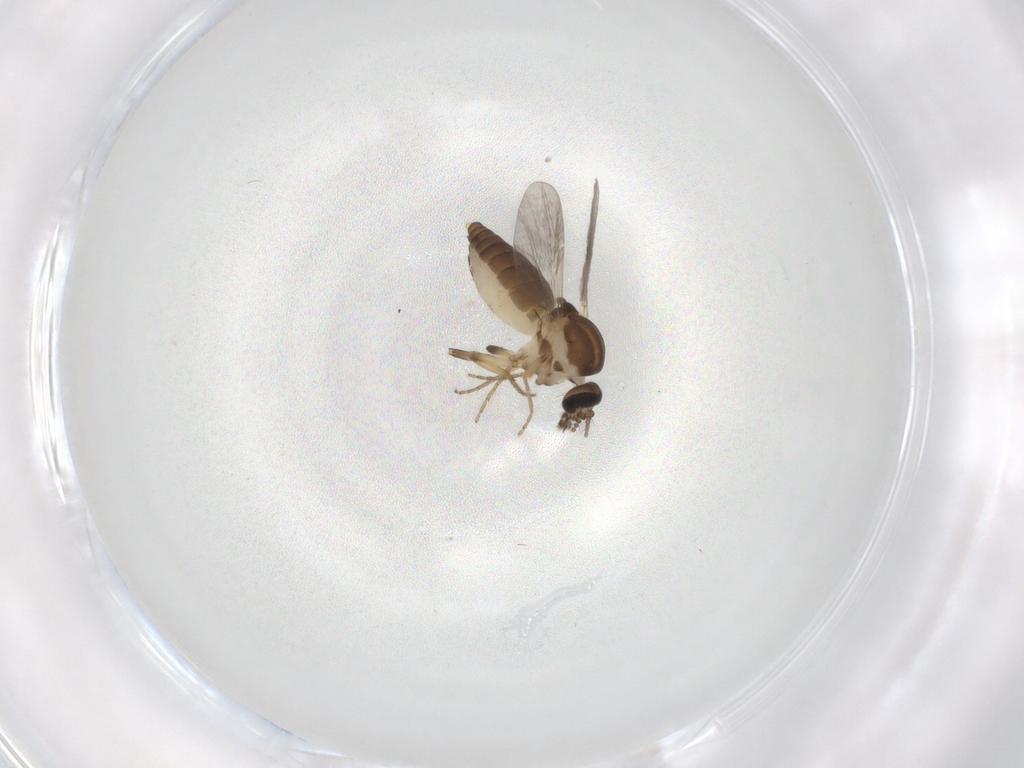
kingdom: Animalia
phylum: Arthropoda
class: Insecta
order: Diptera
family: Ceratopogonidae
